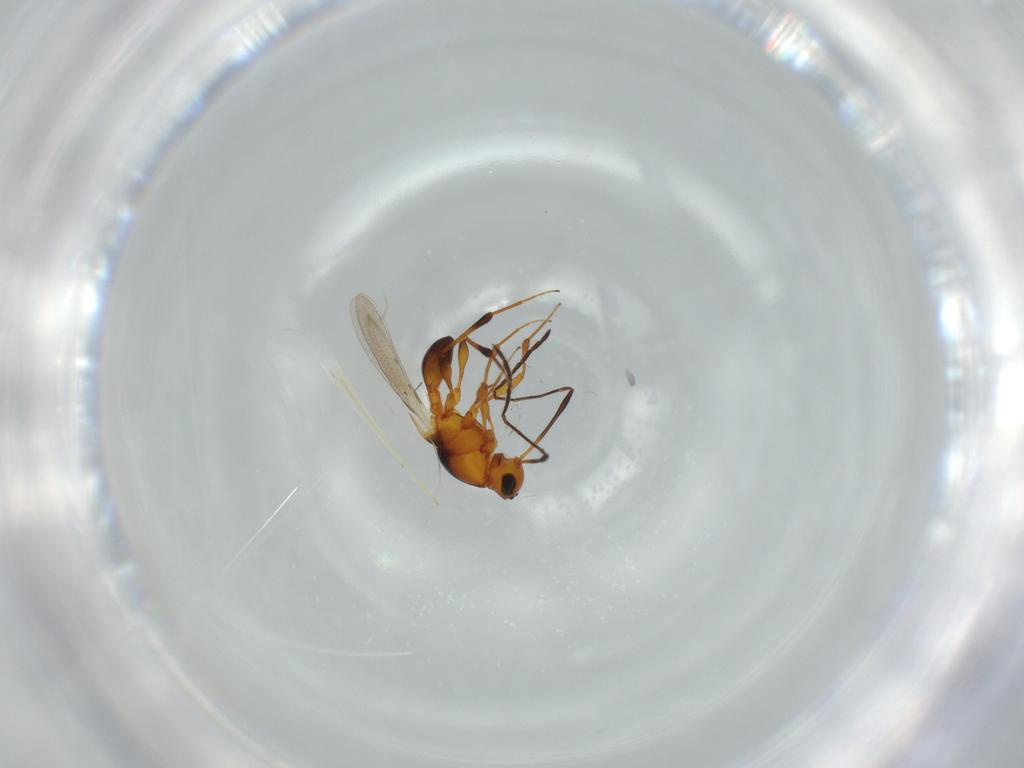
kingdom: Animalia
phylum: Arthropoda
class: Insecta
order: Hymenoptera
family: Platygastridae
